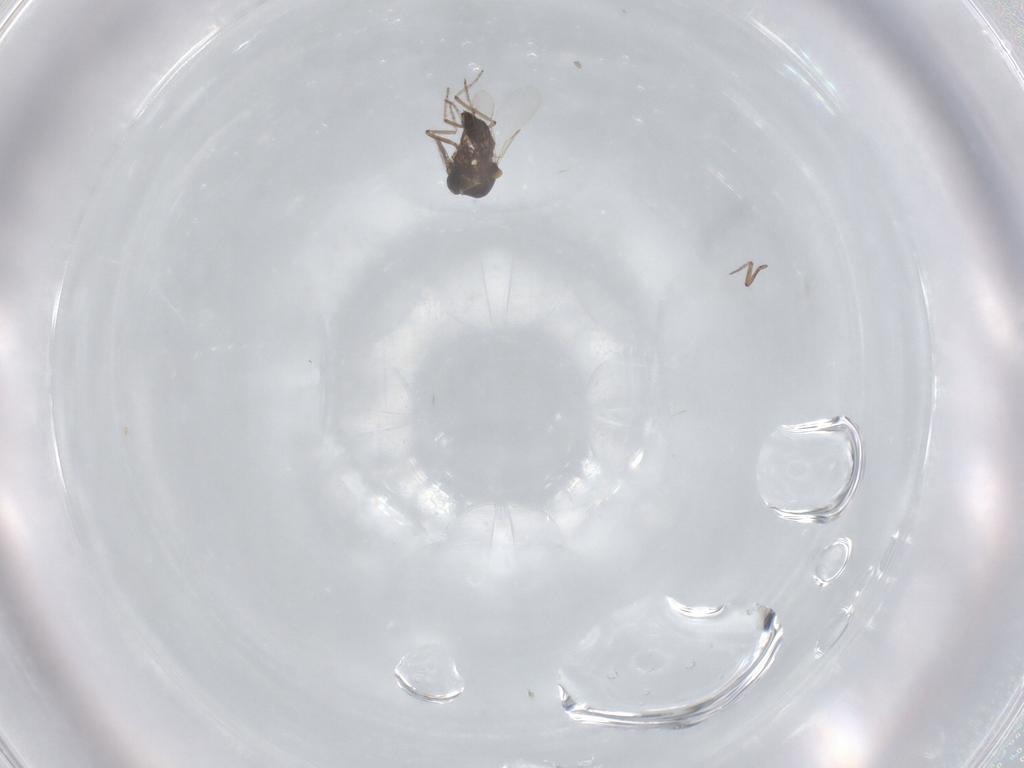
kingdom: Animalia
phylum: Arthropoda
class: Insecta
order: Diptera
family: Ceratopogonidae
